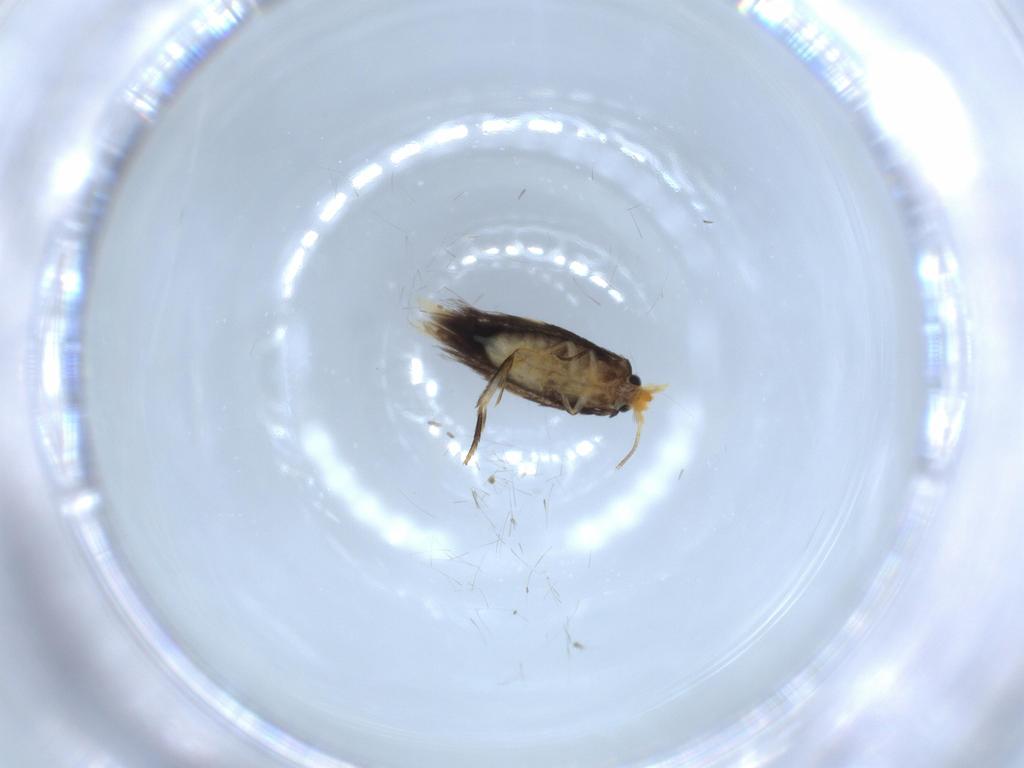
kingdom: Animalia
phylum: Arthropoda
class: Insecta
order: Lepidoptera
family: Nepticulidae
